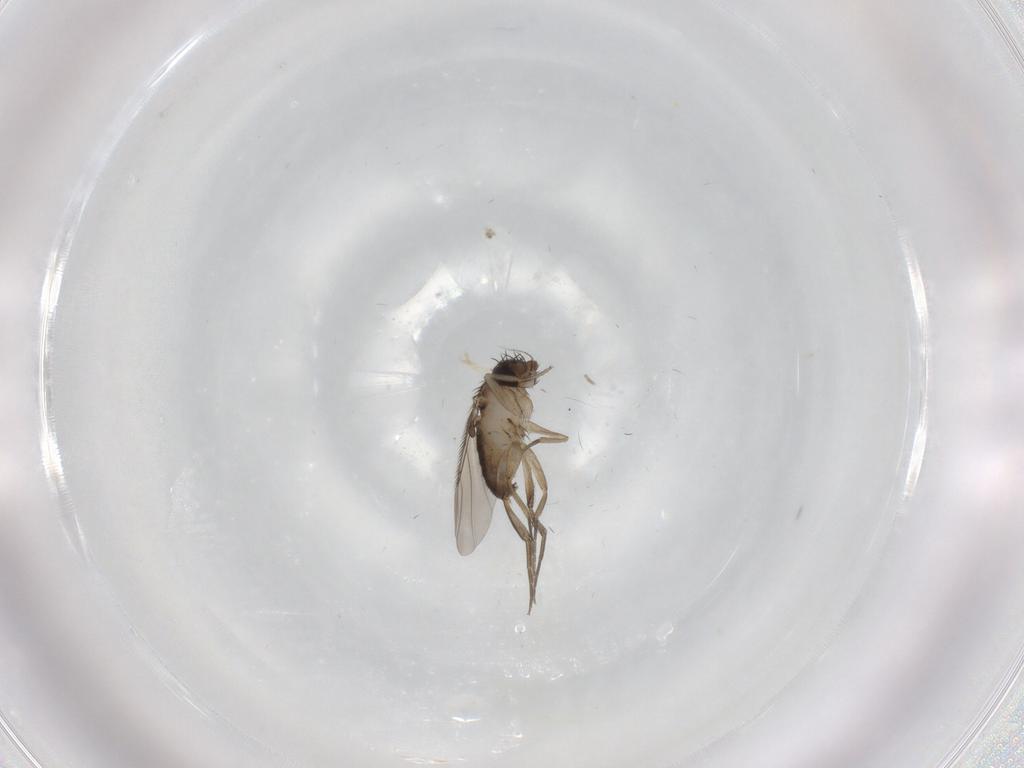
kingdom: Animalia
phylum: Arthropoda
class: Insecta
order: Diptera
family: Phoridae
